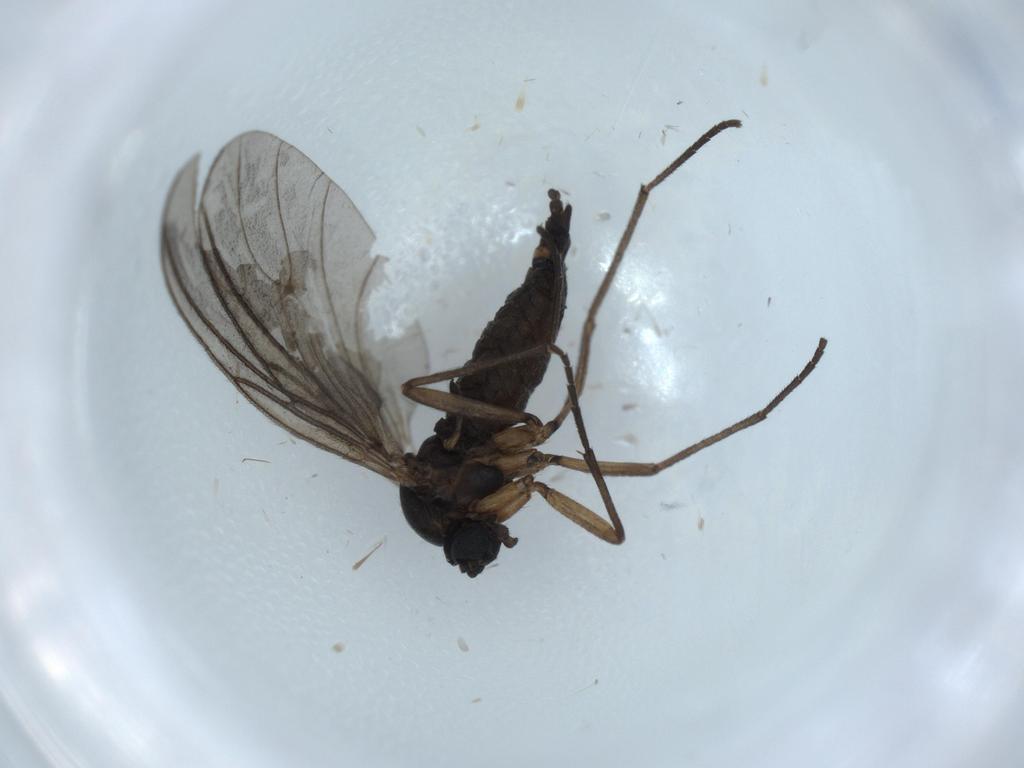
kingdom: Animalia
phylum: Arthropoda
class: Insecta
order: Diptera
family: Sciaridae
